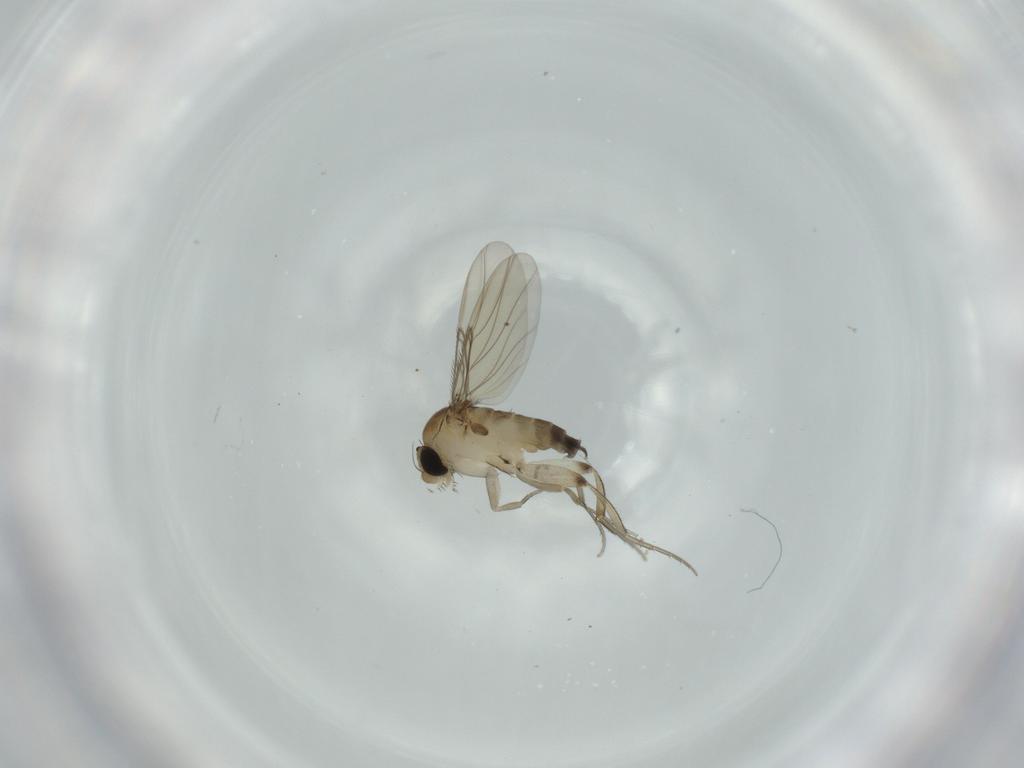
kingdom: Animalia
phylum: Arthropoda
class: Insecta
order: Diptera
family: Phoridae
